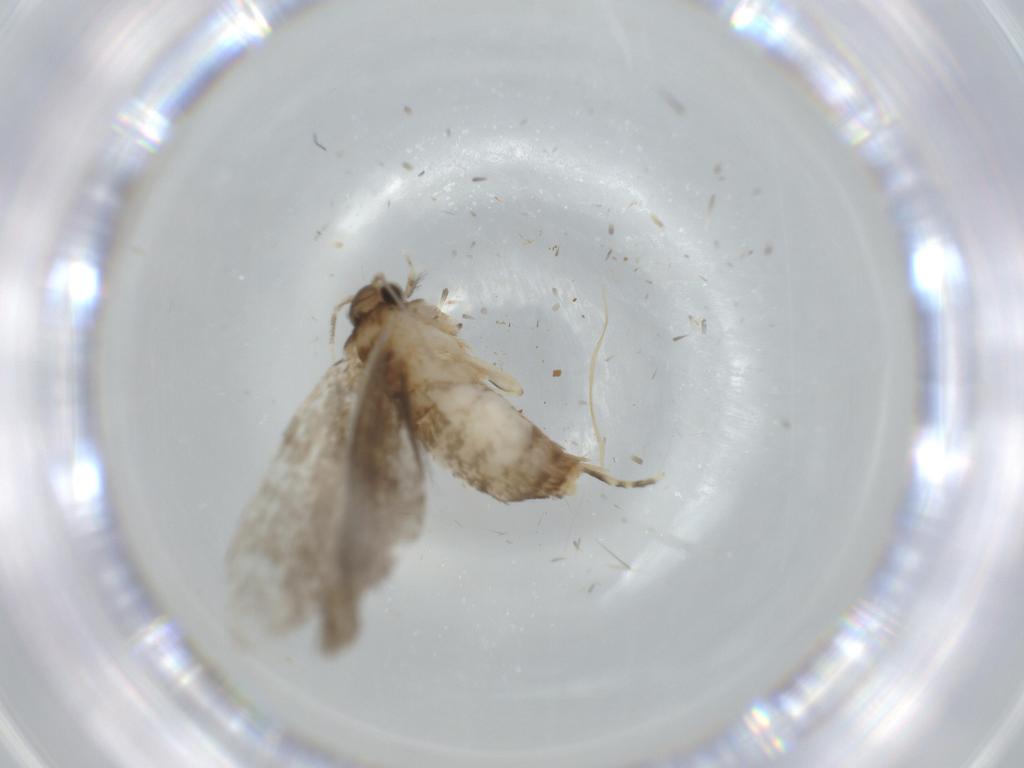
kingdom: Animalia
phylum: Arthropoda
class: Insecta
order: Lepidoptera
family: Tineidae
